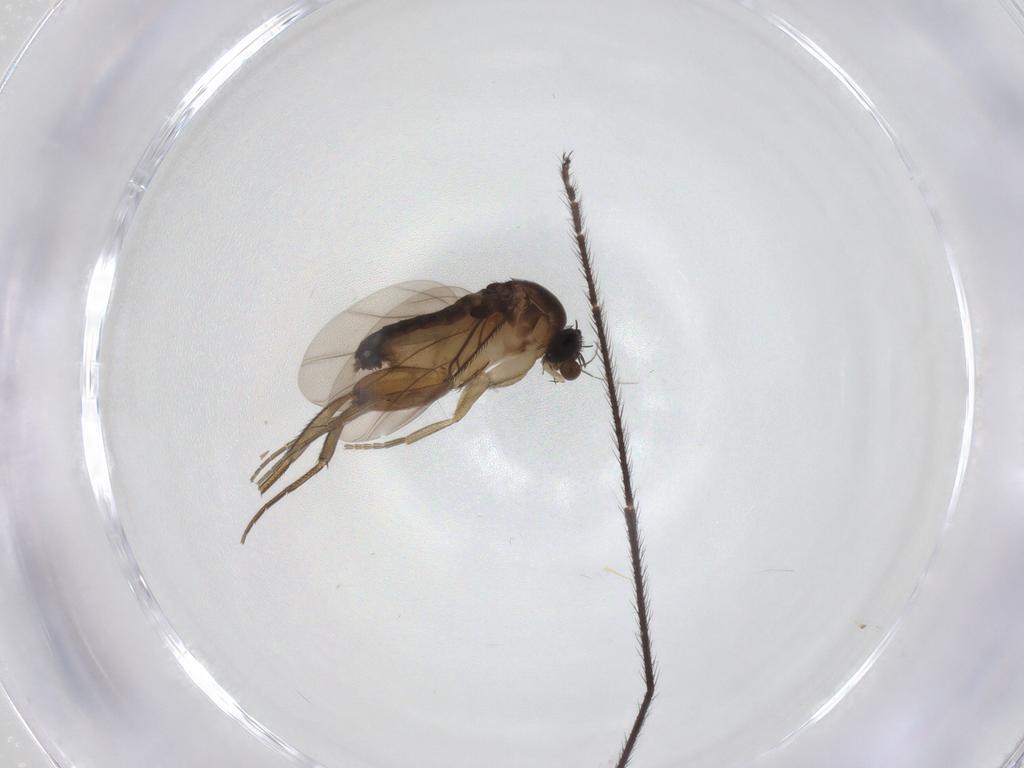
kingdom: Animalia
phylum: Arthropoda
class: Insecta
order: Diptera
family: Phoridae
